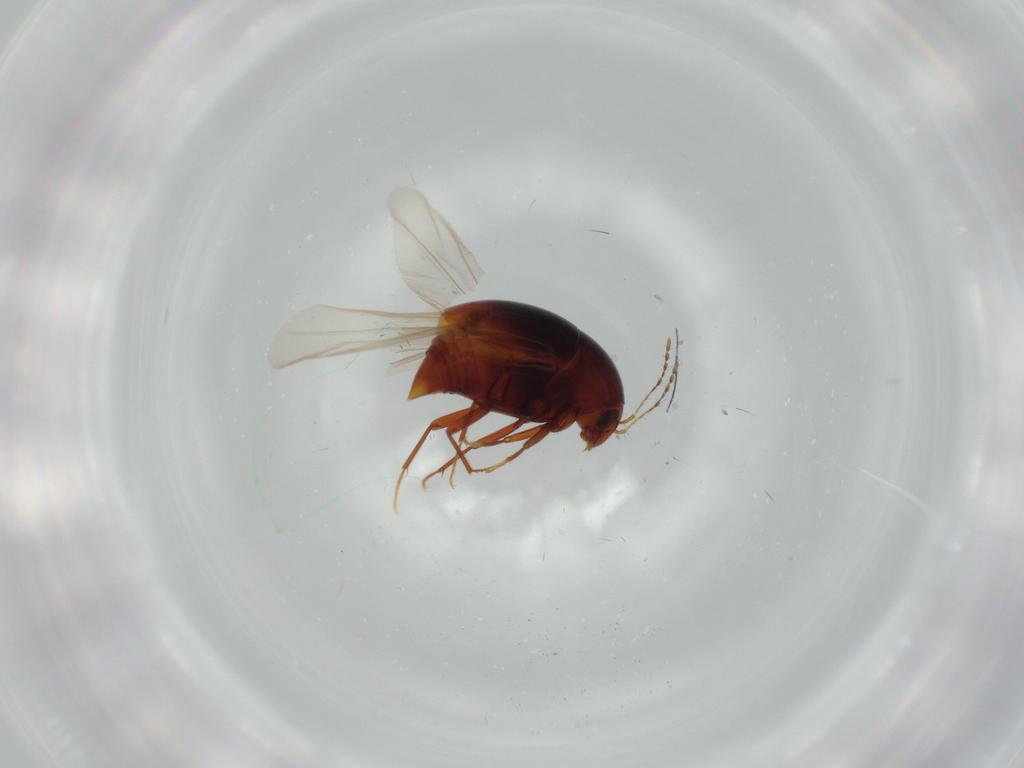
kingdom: Animalia
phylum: Arthropoda
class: Insecta
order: Coleoptera
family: Staphylinidae
